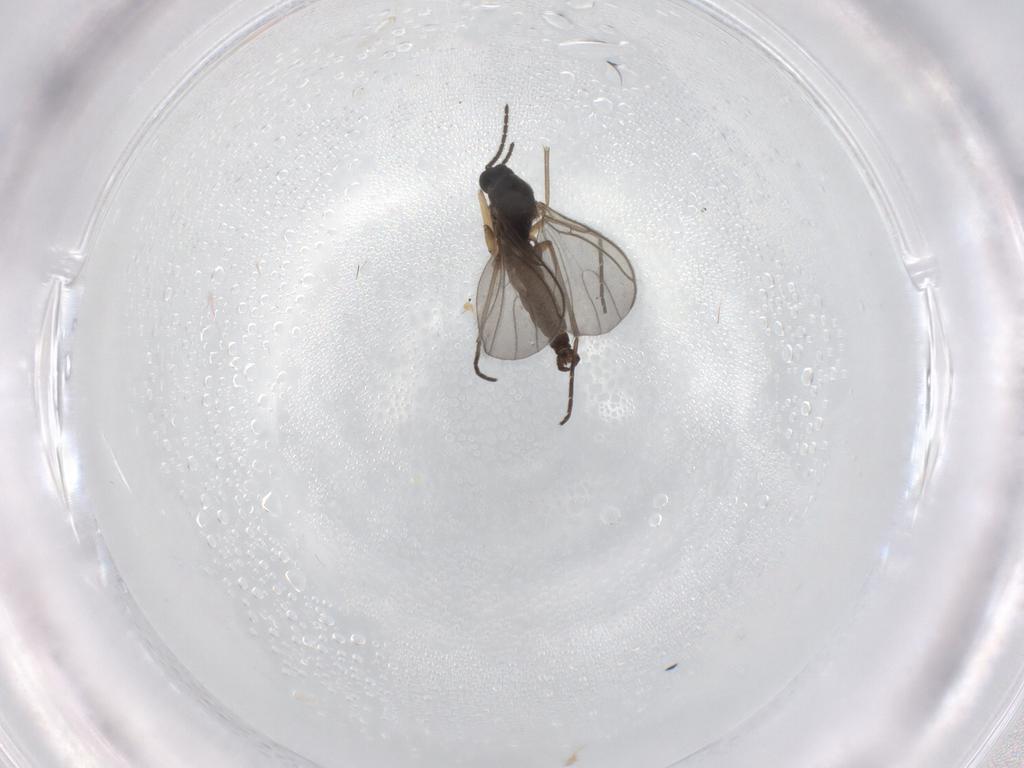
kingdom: Animalia
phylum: Arthropoda
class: Insecta
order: Diptera
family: Sciaridae
